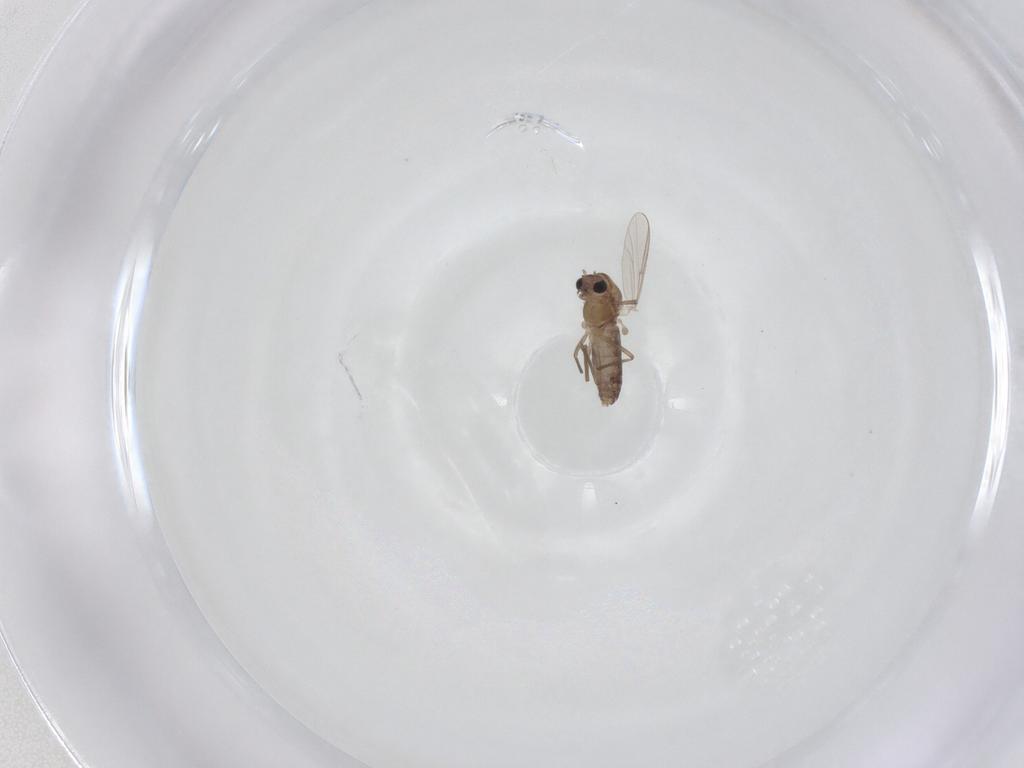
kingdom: Animalia
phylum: Arthropoda
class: Insecta
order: Diptera
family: Chironomidae
